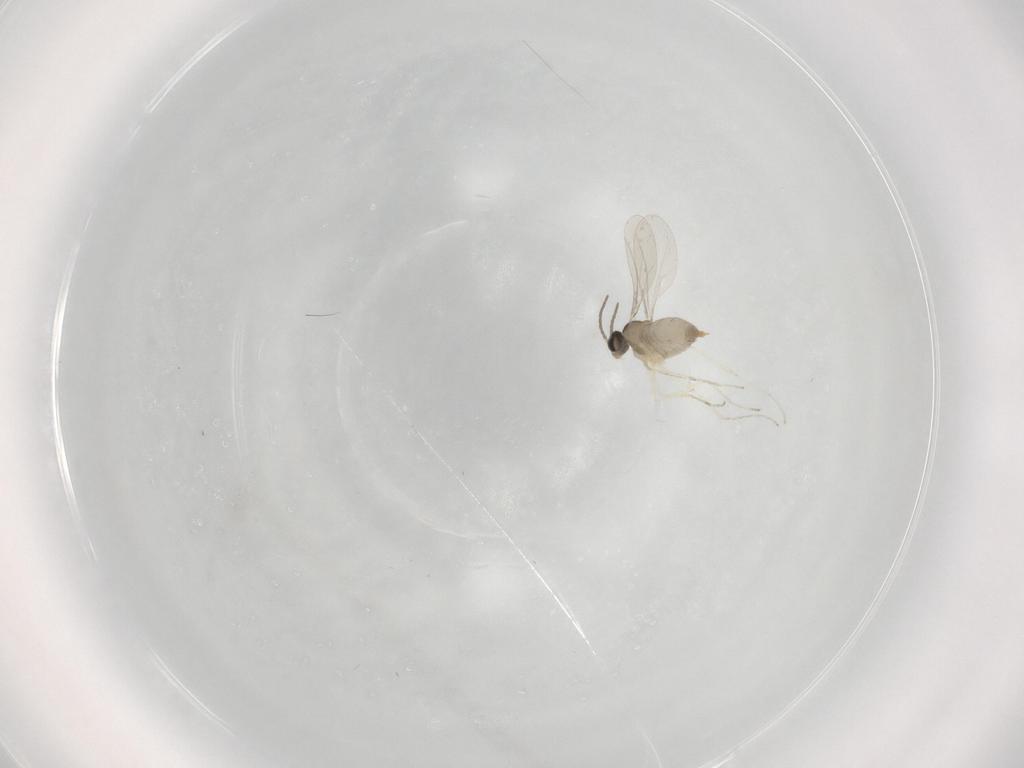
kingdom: Animalia
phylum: Arthropoda
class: Insecta
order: Diptera
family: Cecidomyiidae
